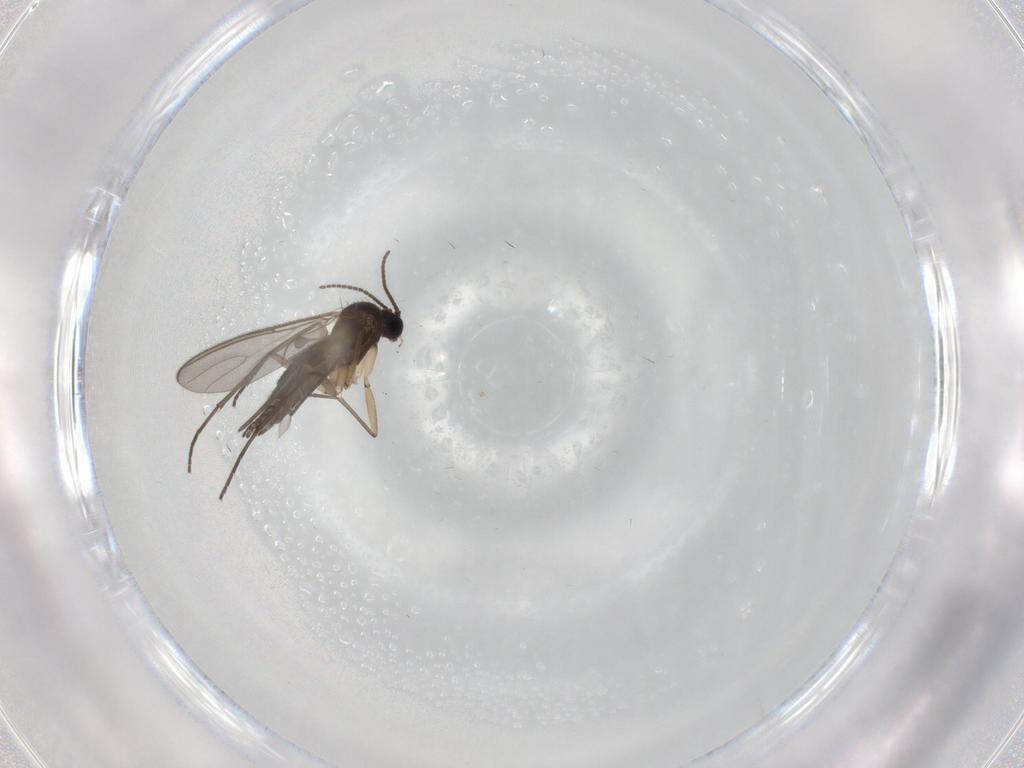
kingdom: Animalia
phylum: Arthropoda
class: Insecta
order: Diptera
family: Sciaridae
